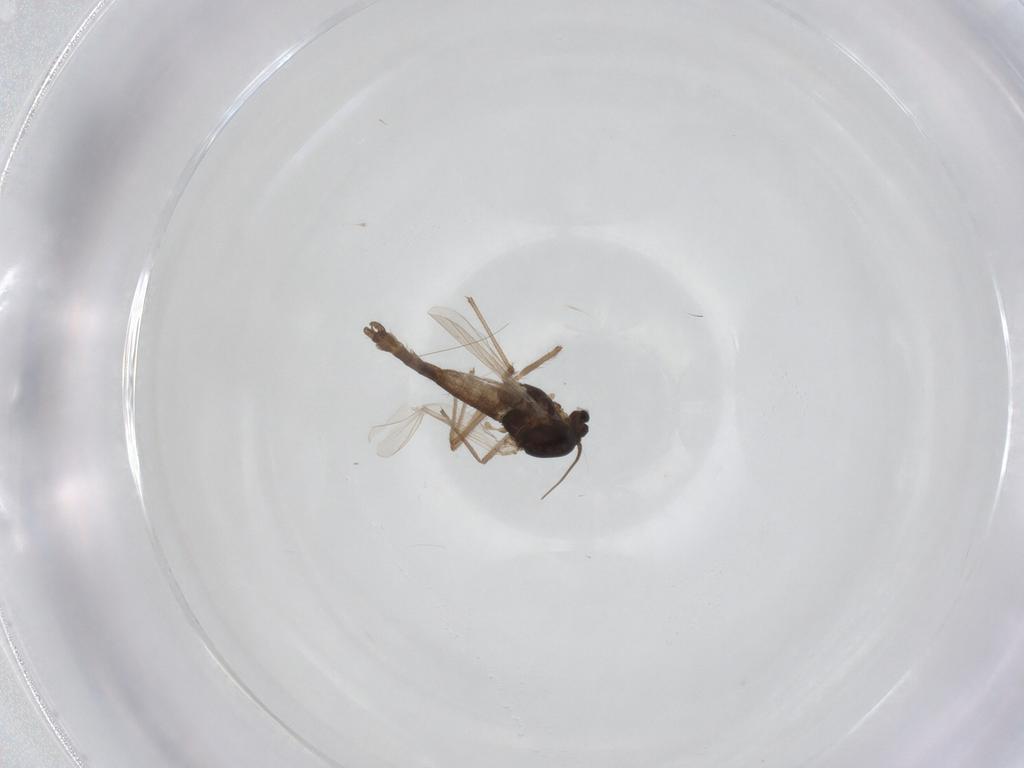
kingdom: Animalia
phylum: Arthropoda
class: Insecta
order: Diptera
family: Chironomidae
